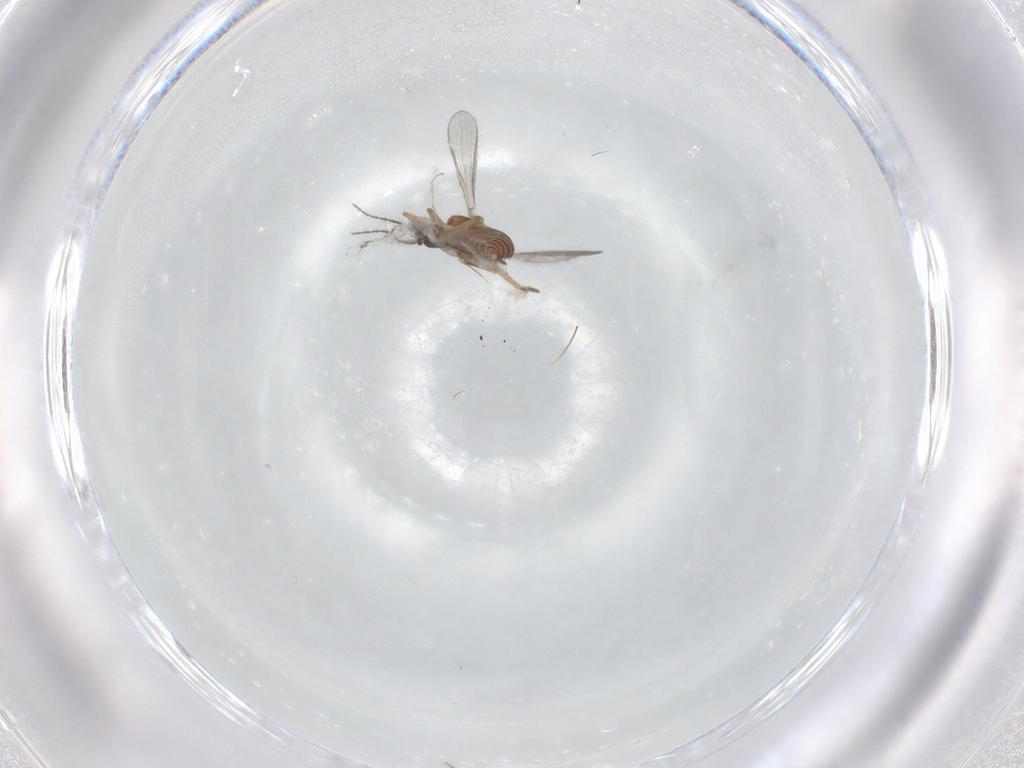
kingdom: Animalia
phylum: Arthropoda
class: Insecta
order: Diptera
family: Ceratopogonidae
